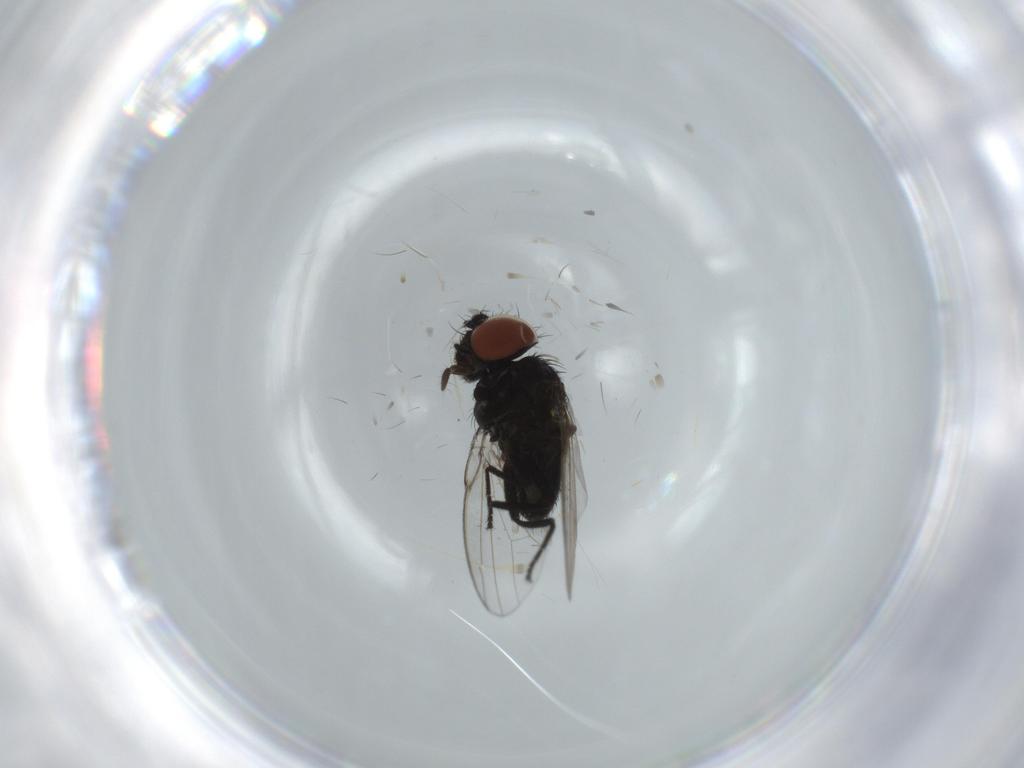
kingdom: Animalia
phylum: Arthropoda
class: Insecta
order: Diptera
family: Milichiidae
